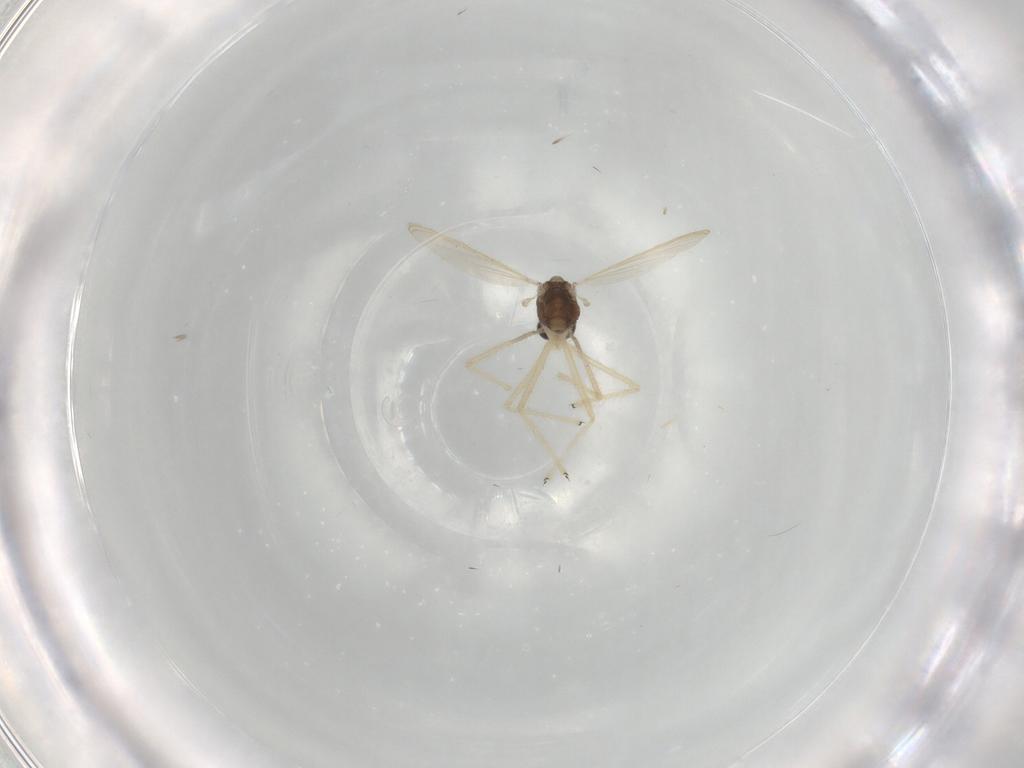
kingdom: Animalia
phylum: Arthropoda
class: Insecta
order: Diptera
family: Chironomidae
